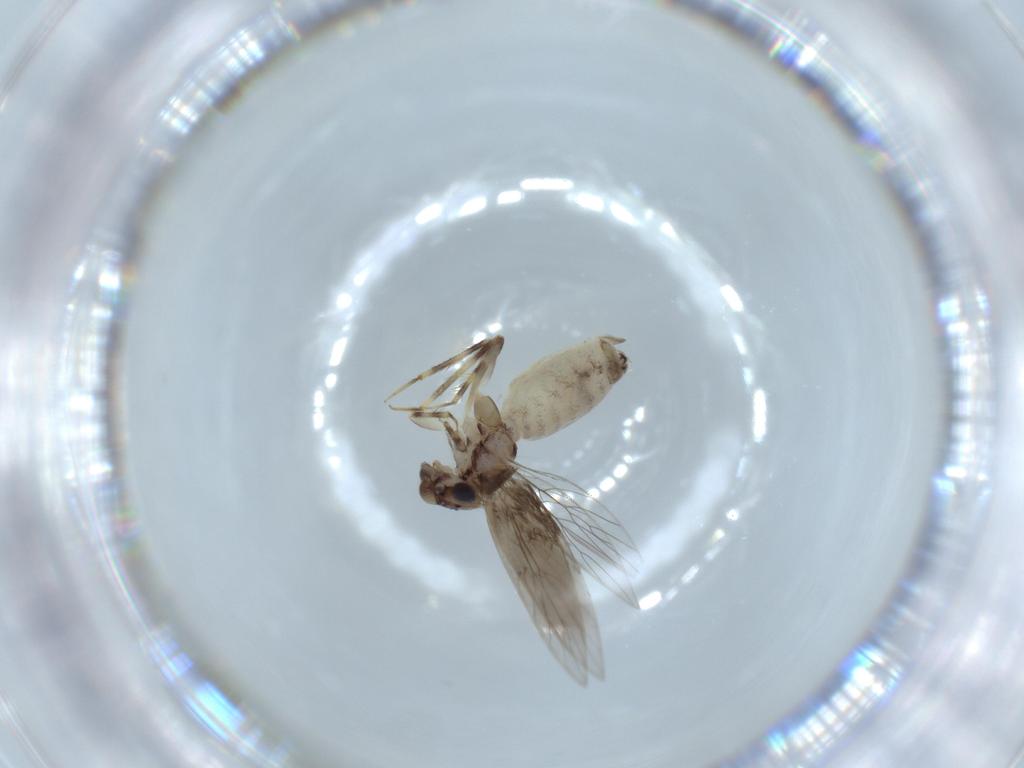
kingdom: Animalia
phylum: Arthropoda
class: Insecta
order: Psocodea
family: Lepidopsocidae
